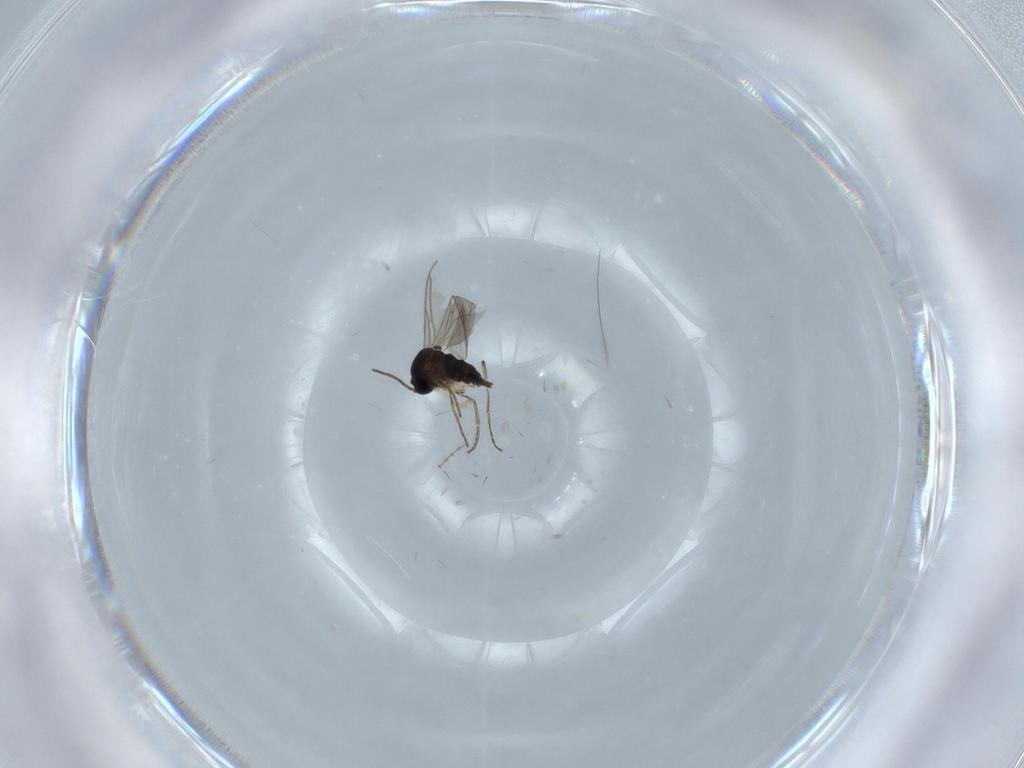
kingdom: Animalia
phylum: Arthropoda
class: Insecta
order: Diptera
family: Sciaridae
